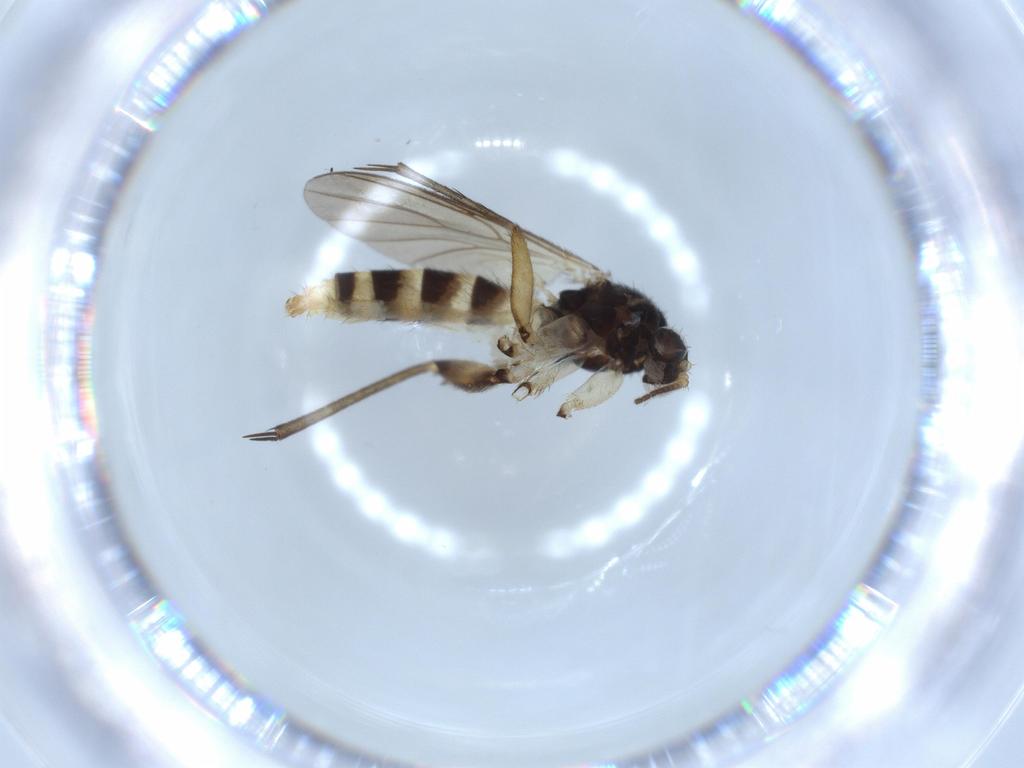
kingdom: Animalia
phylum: Arthropoda
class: Insecta
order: Diptera
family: Mycetophilidae
